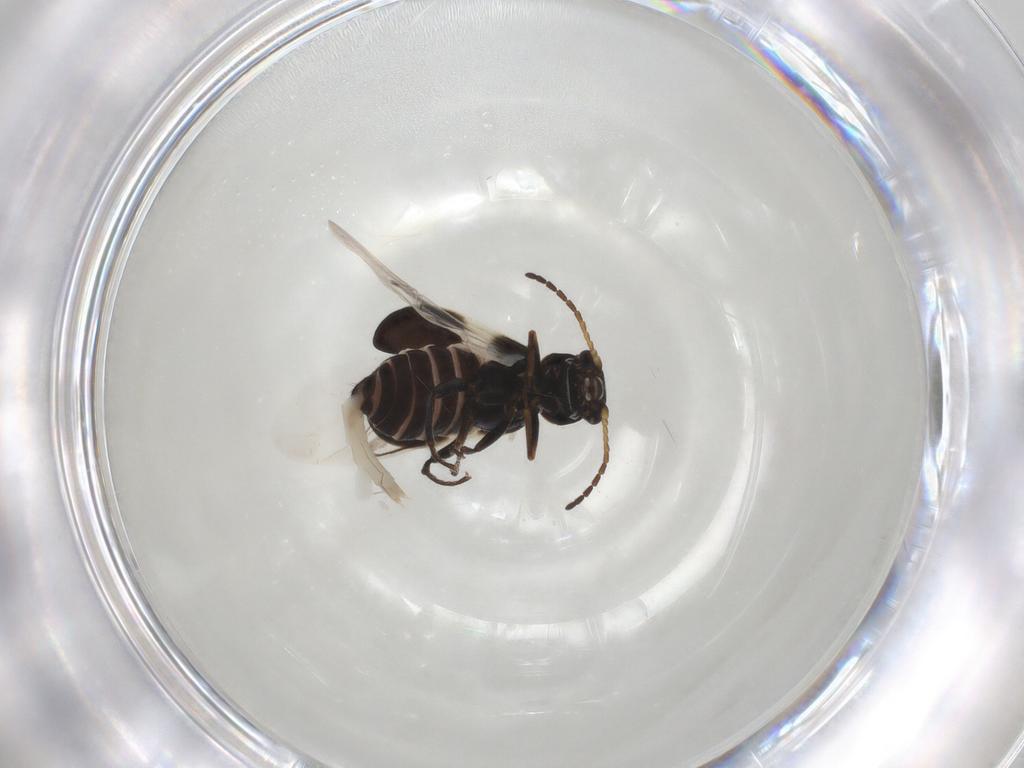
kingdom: Animalia
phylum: Arthropoda
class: Insecta
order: Coleoptera
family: Melyridae
